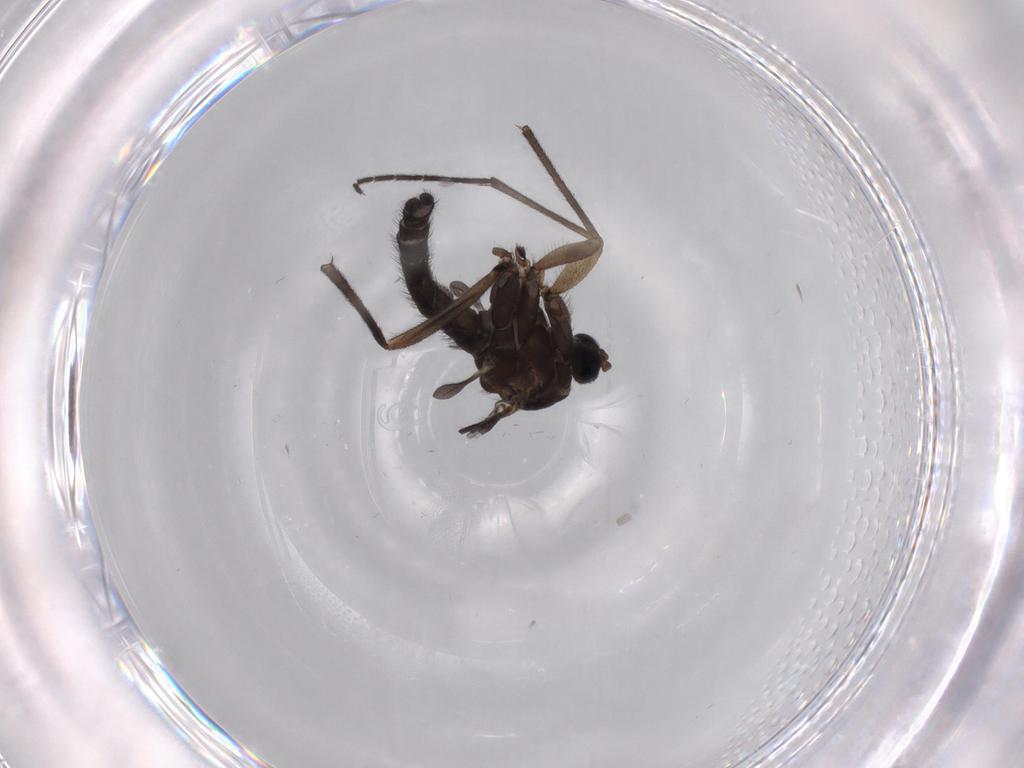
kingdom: Animalia
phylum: Arthropoda
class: Insecta
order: Diptera
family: Sciaridae
